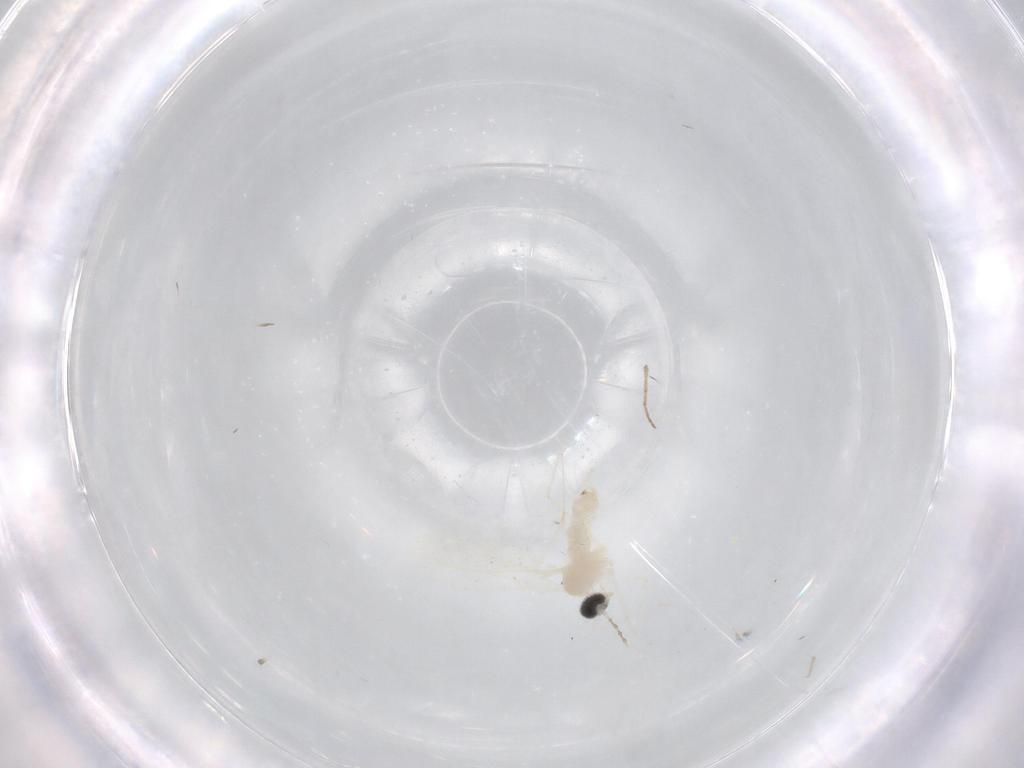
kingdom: Animalia
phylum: Arthropoda
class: Insecta
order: Diptera
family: Cecidomyiidae
